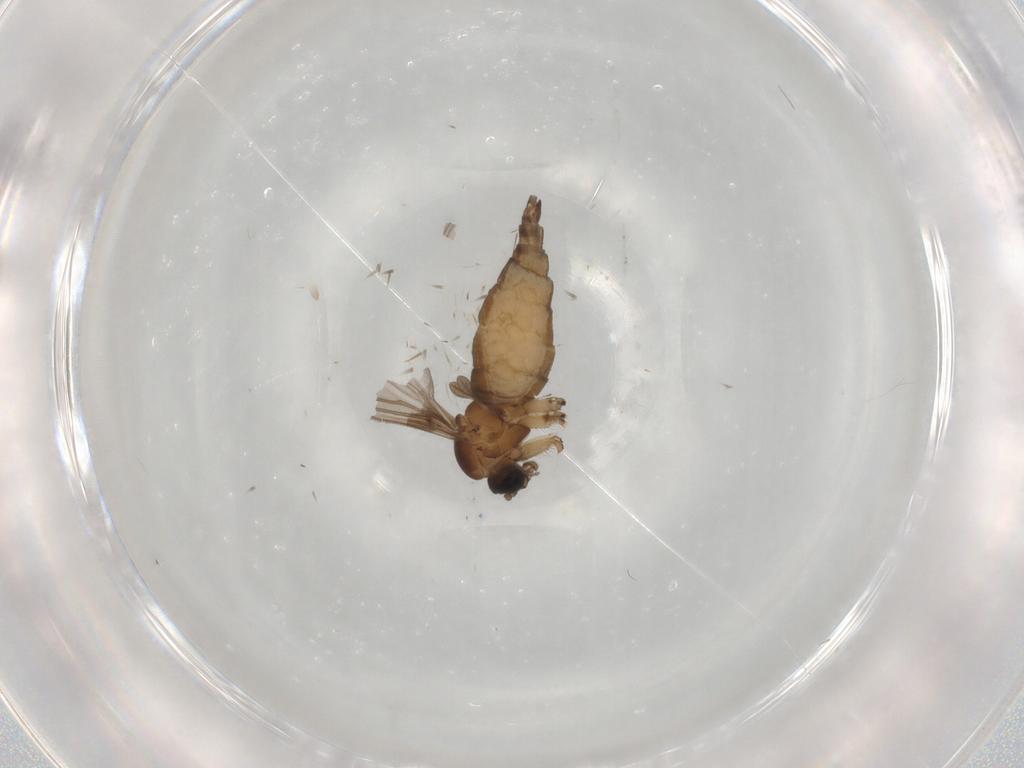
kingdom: Animalia
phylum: Arthropoda
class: Insecta
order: Diptera
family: Sciaridae
